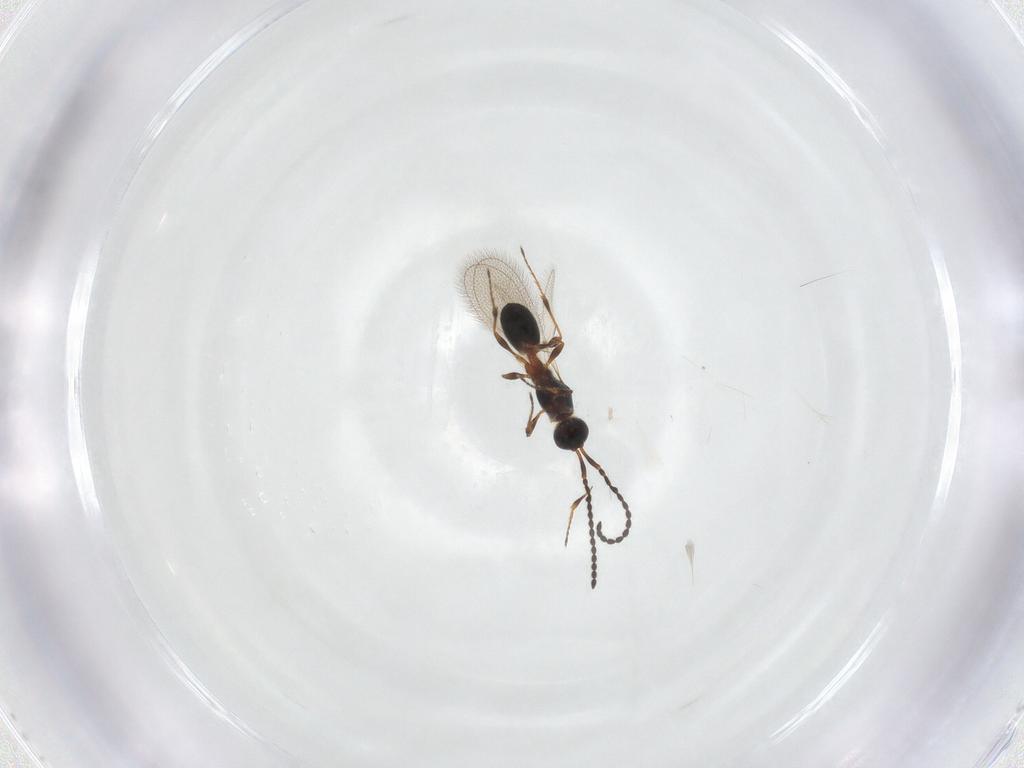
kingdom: Animalia
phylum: Arthropoda
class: Insecta
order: Hymenoptera
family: Diapriidae
